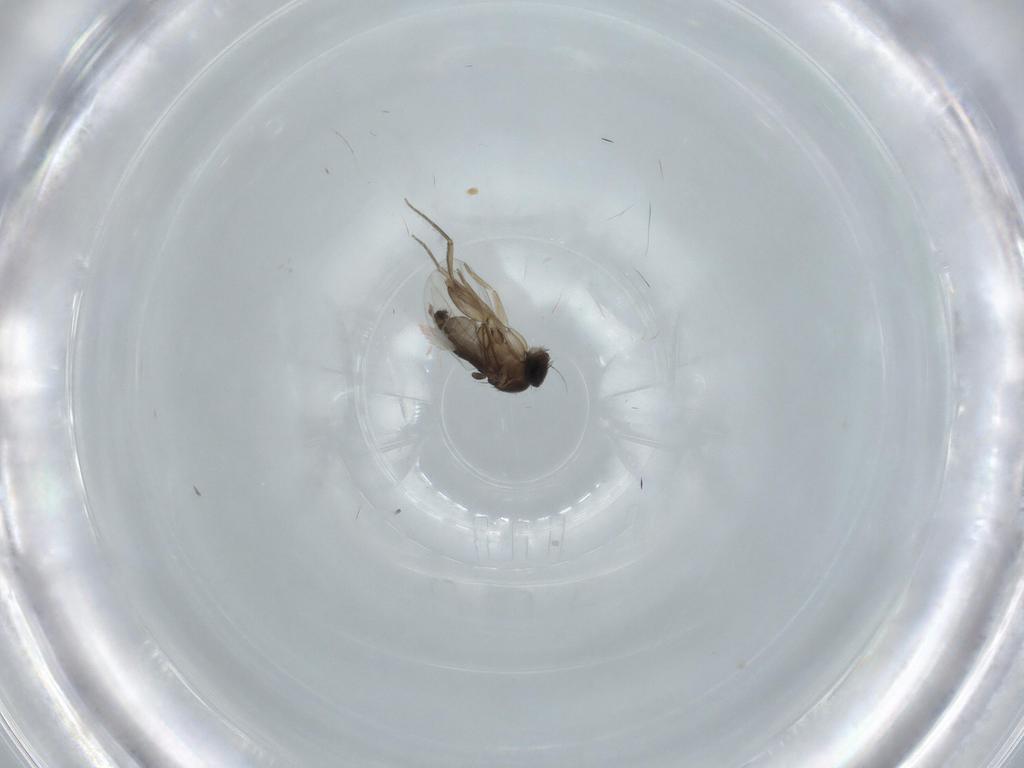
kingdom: Animalia
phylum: Arthropoda
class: Insecta
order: Diptera
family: Phoridae
